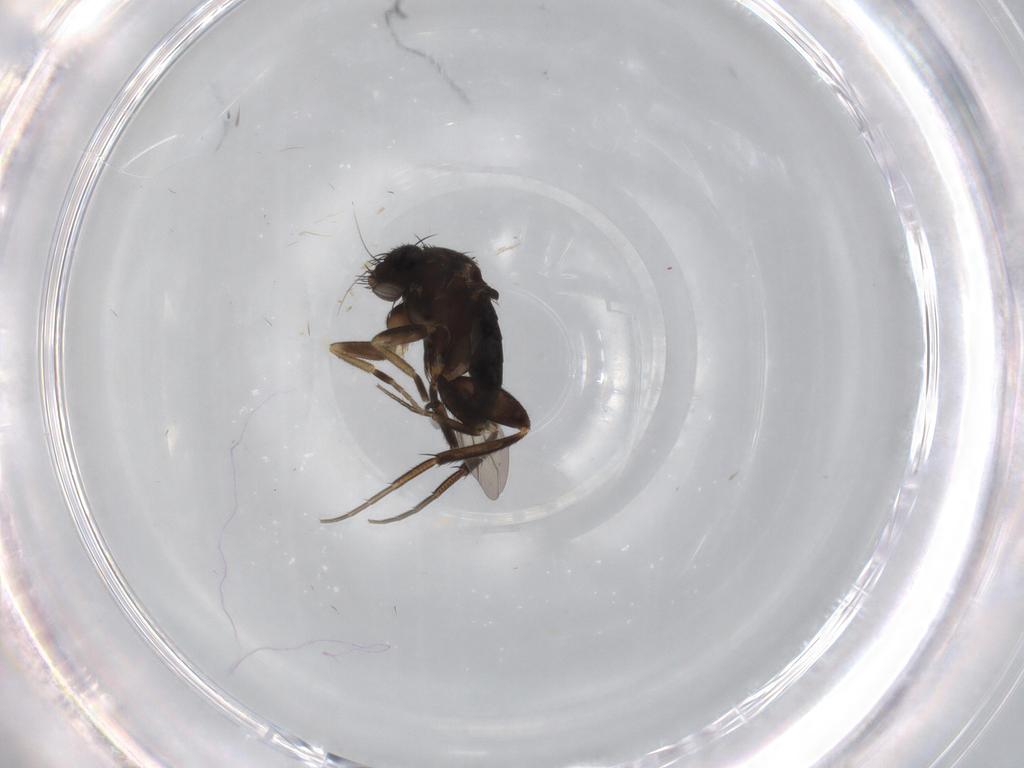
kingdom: Animalia
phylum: Arthropoda
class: Insecta
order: Diptera
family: Phoridae
